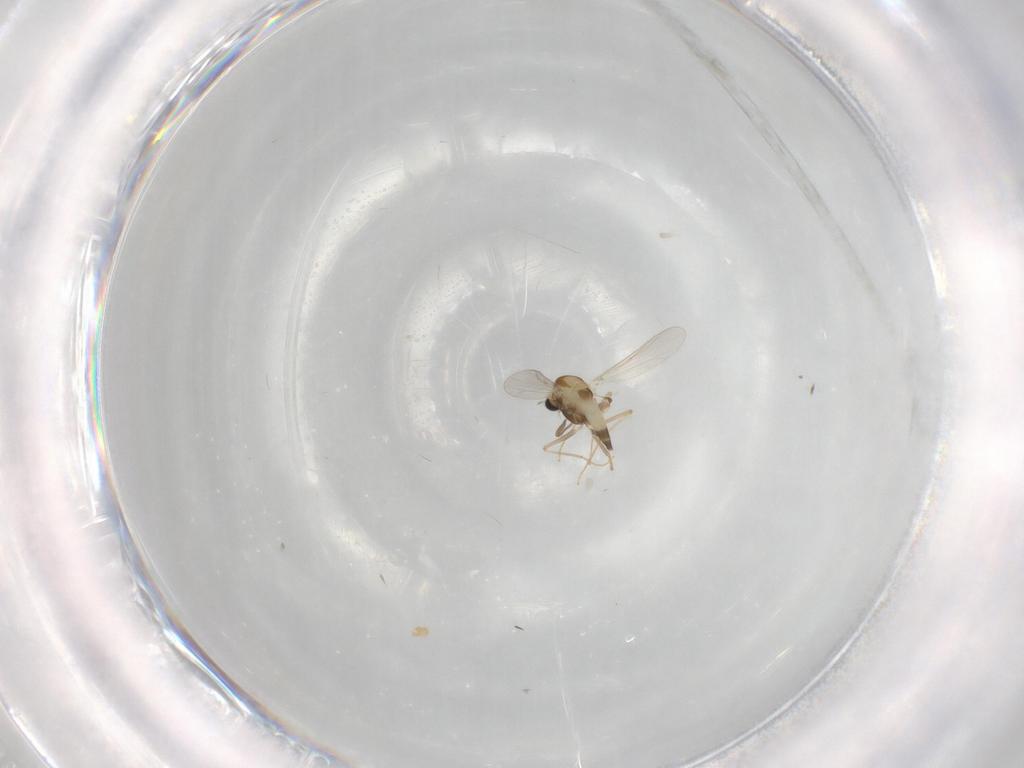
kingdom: Animalia
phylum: Arthropoda
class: Insecta
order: Diptera
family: Chironomidae
